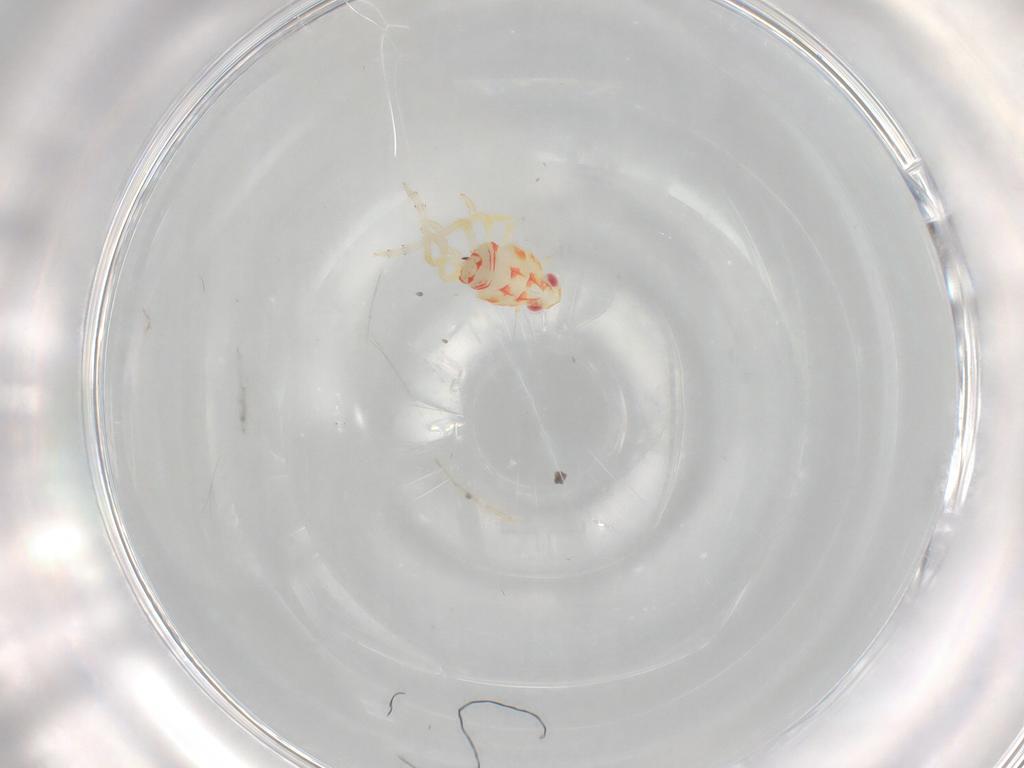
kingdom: Animalia
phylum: Arthropoda
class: Insecta
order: Hemiptera
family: Tropiduchidae
